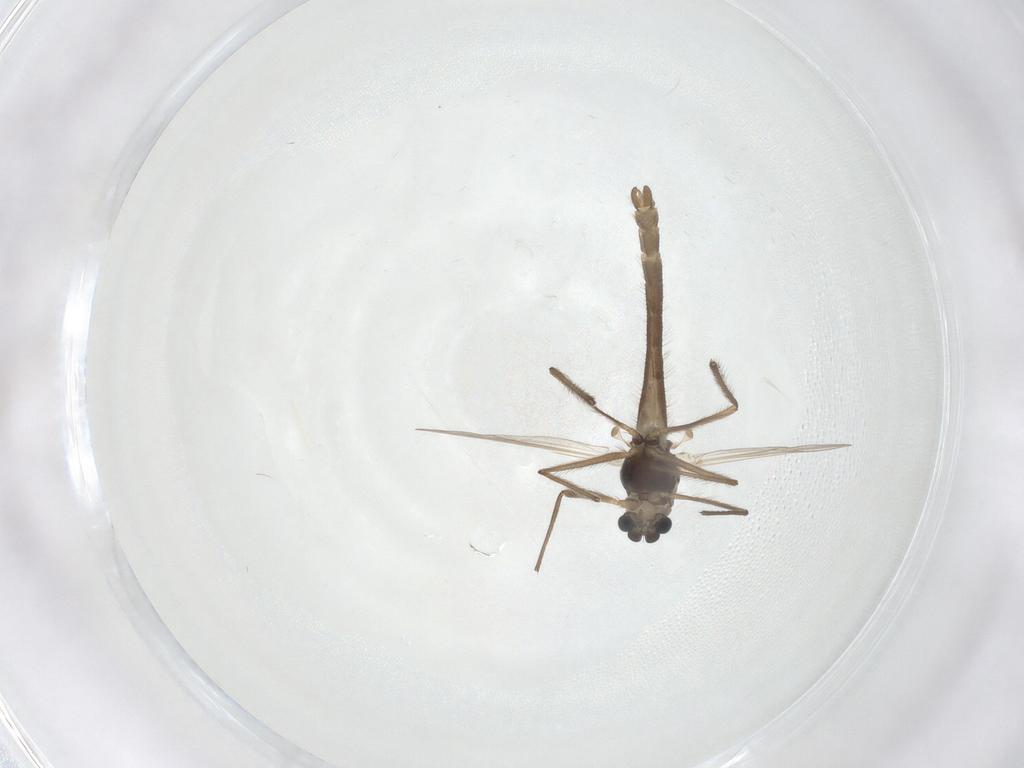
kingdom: Animalia
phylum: Arthropoda
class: Insecta
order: Diptera
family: Chironomidae
